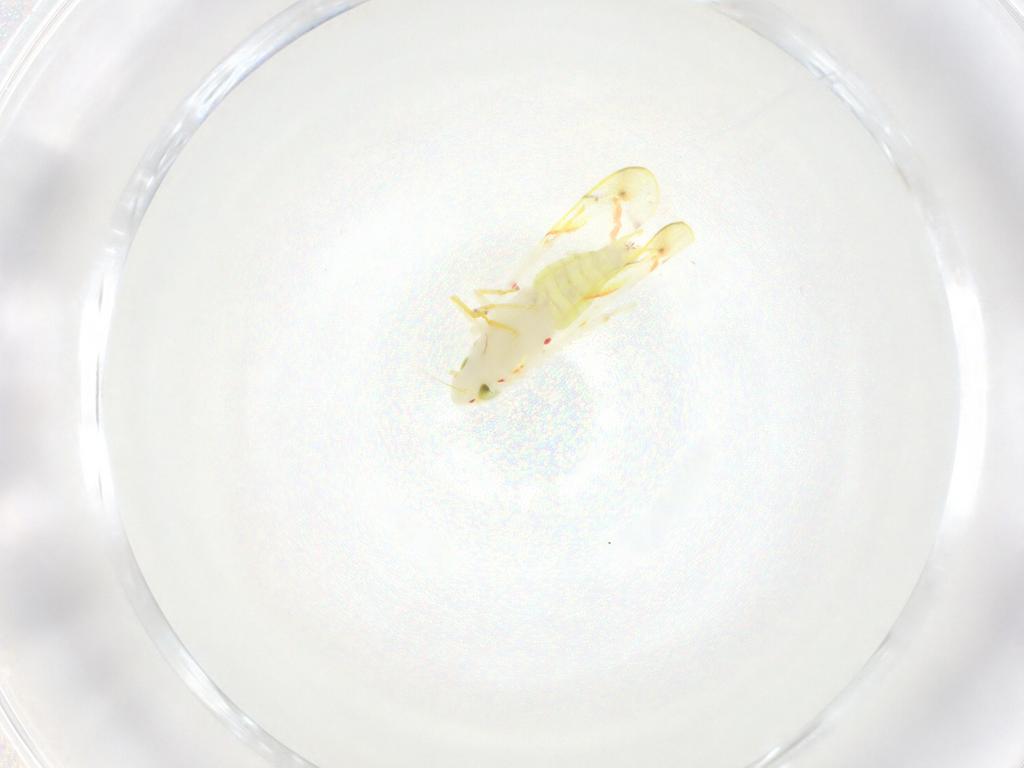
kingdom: Animalia
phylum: Arthropoda
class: Insecta
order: Hemiptera
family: Cicadellidae
